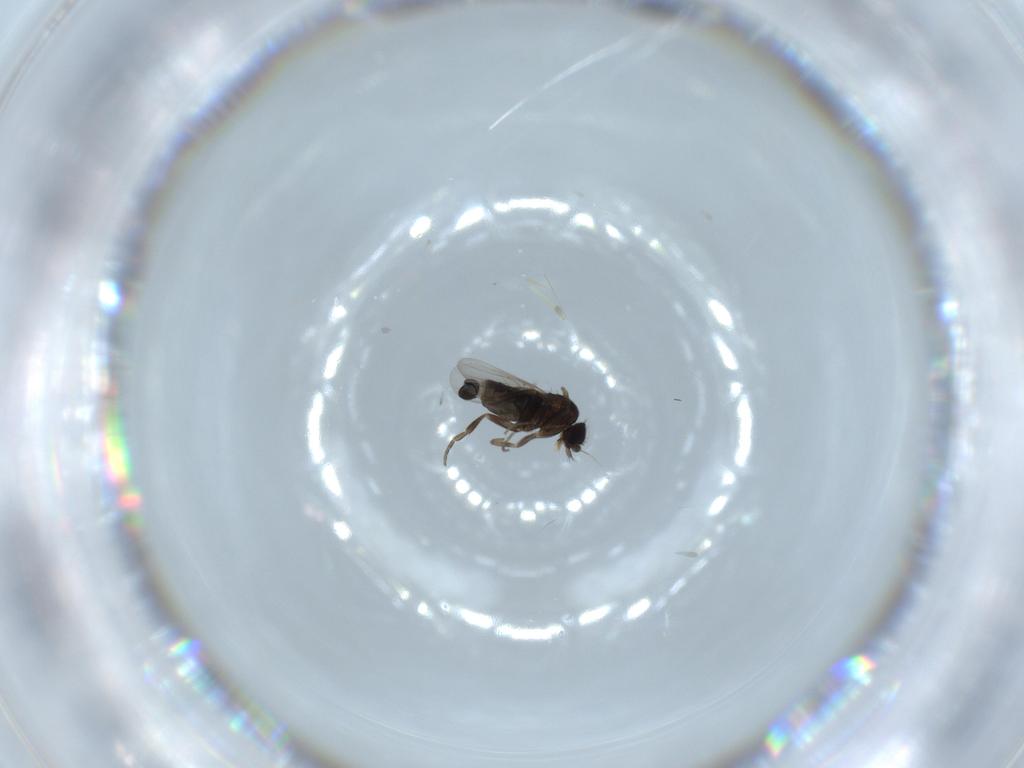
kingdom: Animalia
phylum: Arthropoda
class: Insecta
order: Diptera
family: Phoridae
